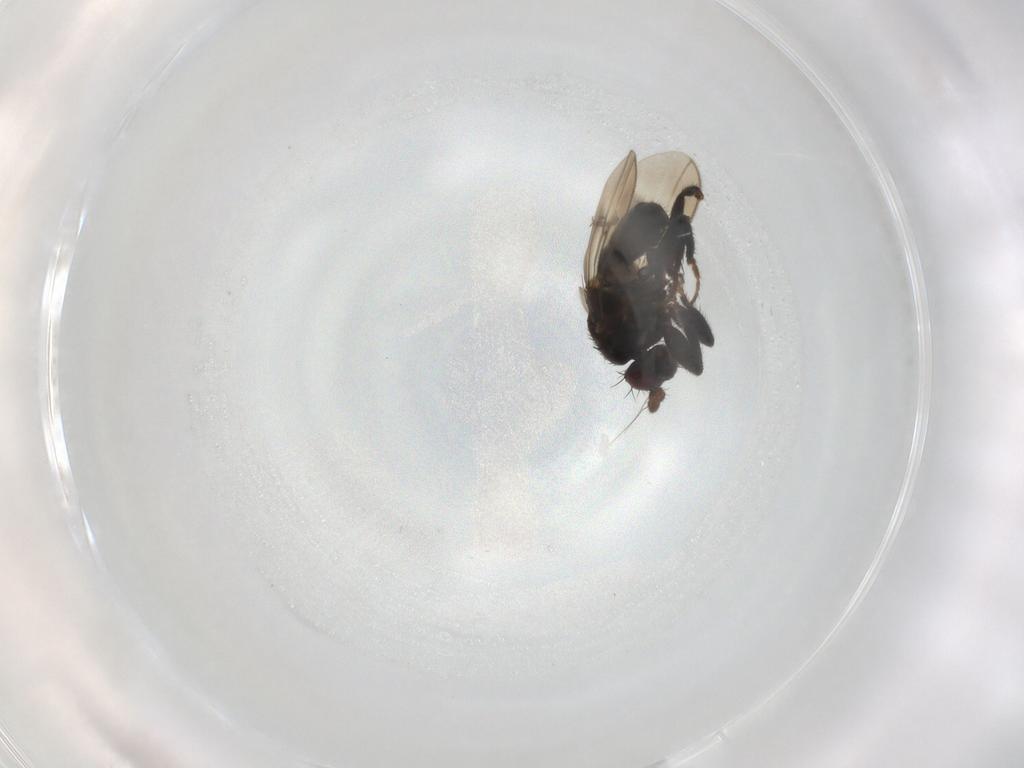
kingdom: Animalia
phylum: Arthropoda
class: Insecta
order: Diptera
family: Sphaeroceridae
